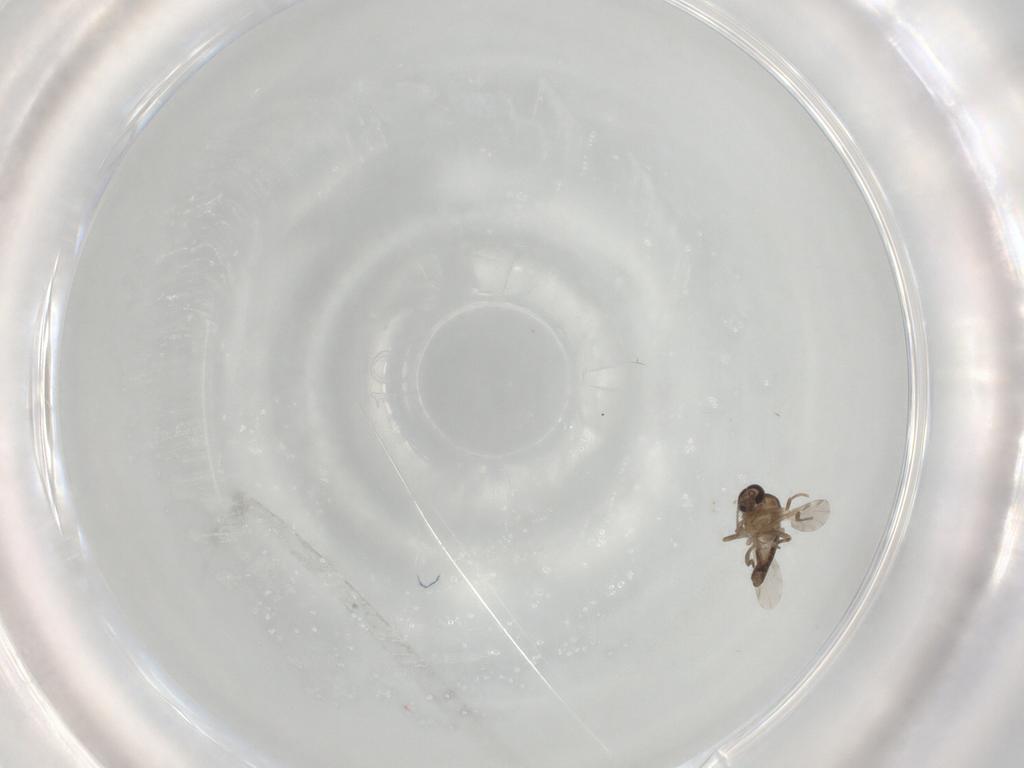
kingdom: Animalia
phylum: Arthropoda
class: Insecta
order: Diptera
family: Ceratopogonidae
